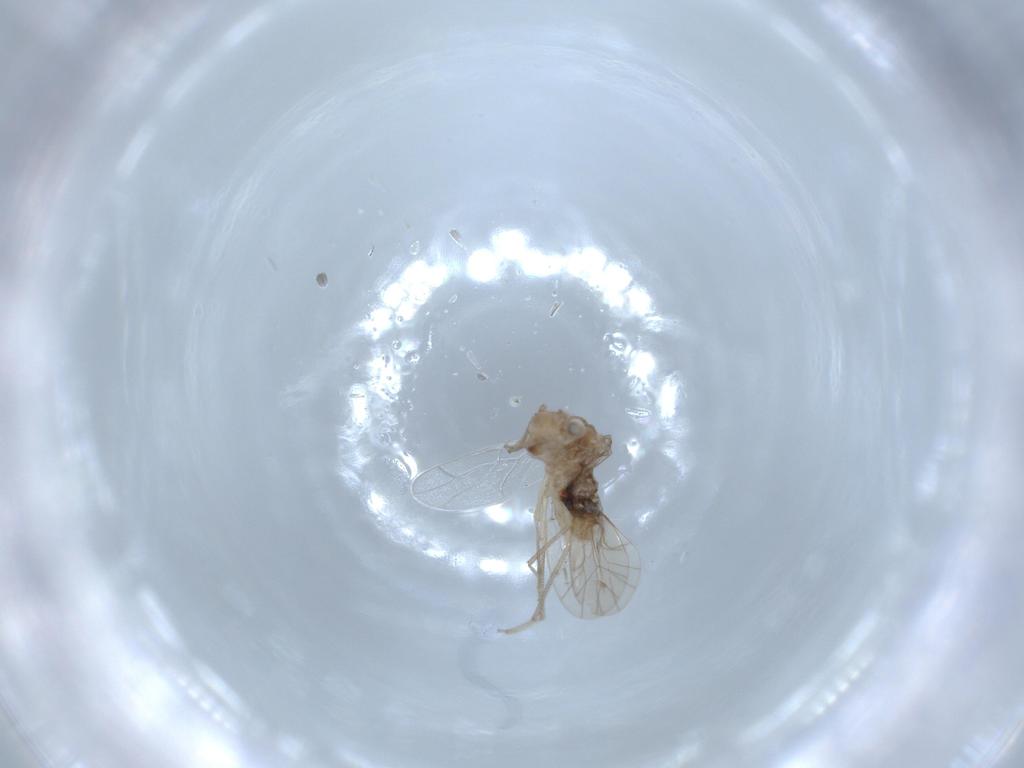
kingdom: Animalia
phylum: Arthropoda
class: Insecta
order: Psocodea
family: Lachesillidae
